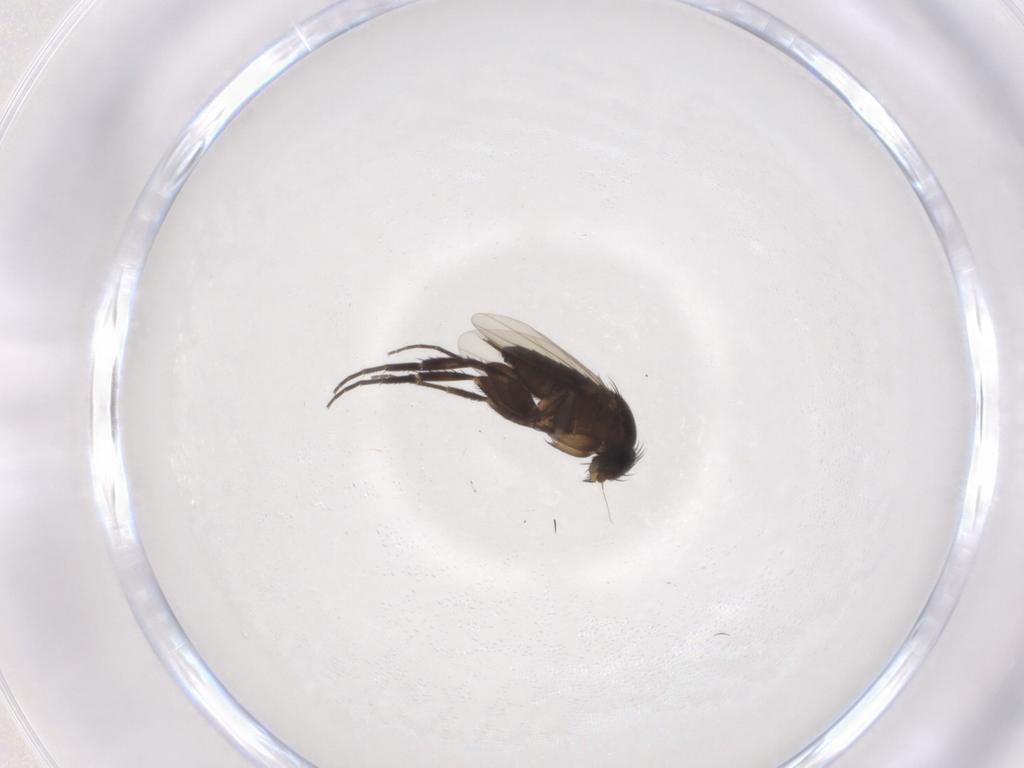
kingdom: Animalia
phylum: Arthropoda
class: Insecta
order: Diptera
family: Phoridae
